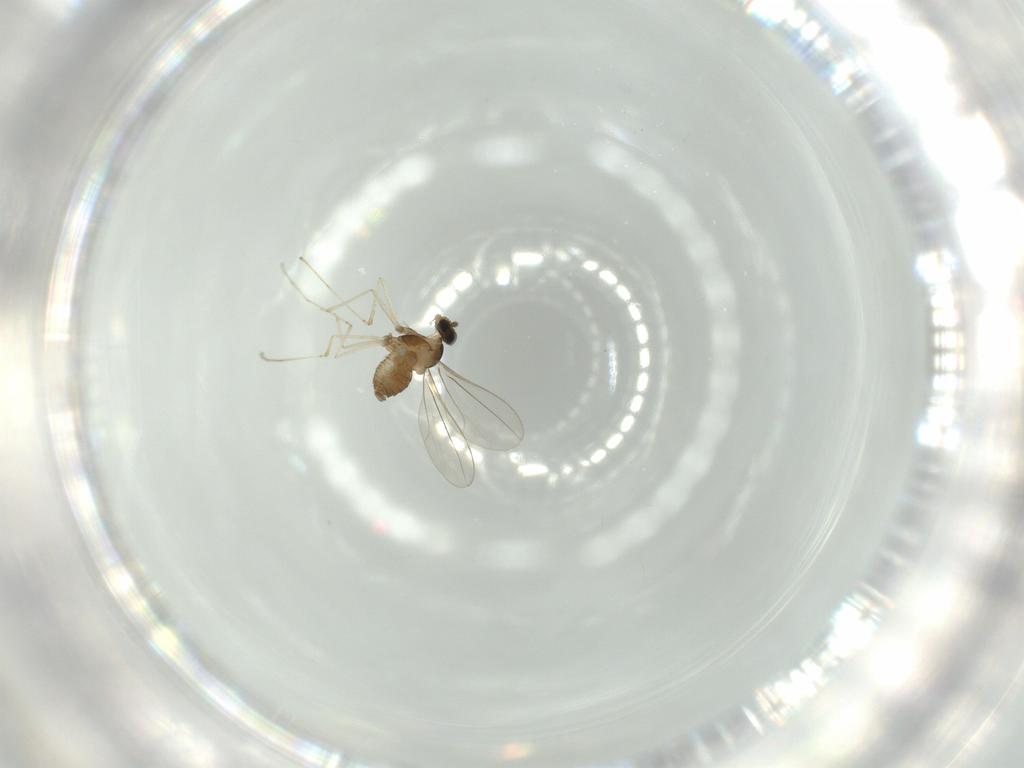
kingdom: Animalia
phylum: Arthropoda
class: Insecta
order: Diptera
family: Cecidomyiidae
